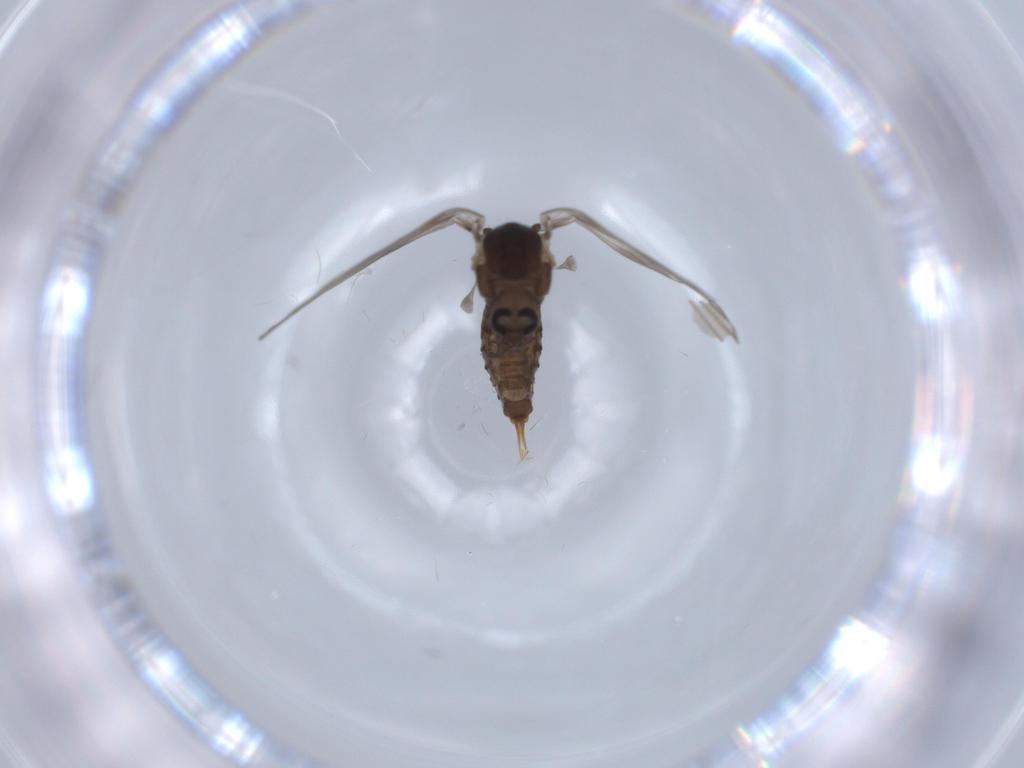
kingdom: Animalia
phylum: Arthropoda
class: Insecta
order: Diptera
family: Psychodidae
